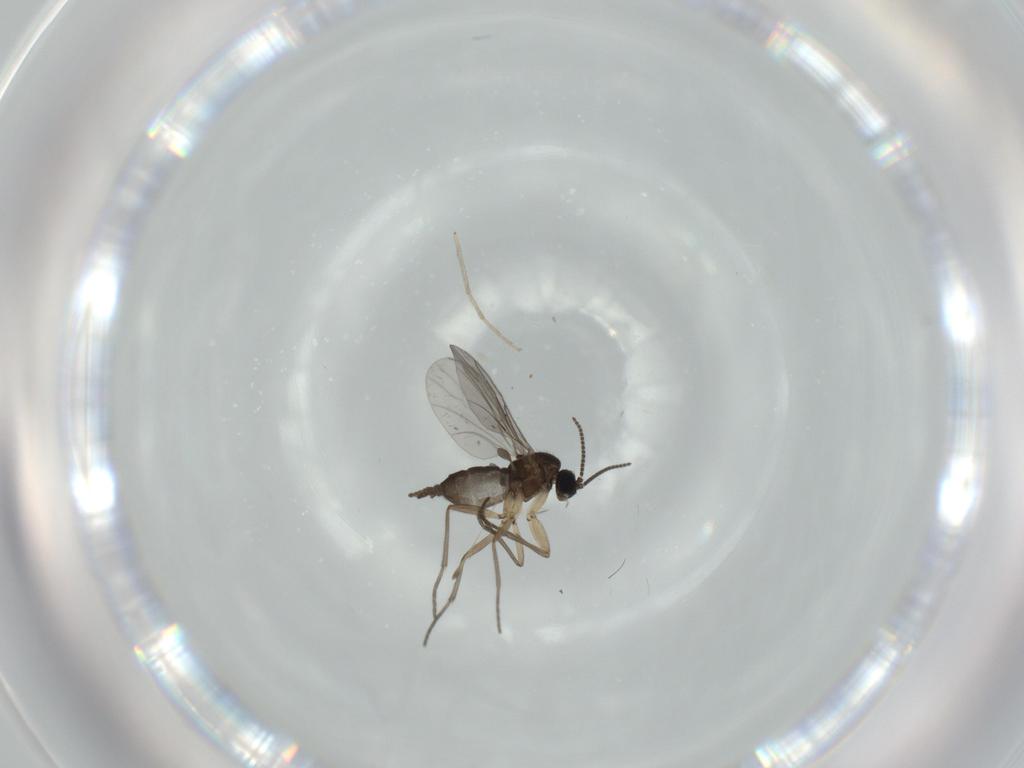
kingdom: Animalia
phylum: Arthropoda
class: Insecta
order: Diptera
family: Sciaridae
